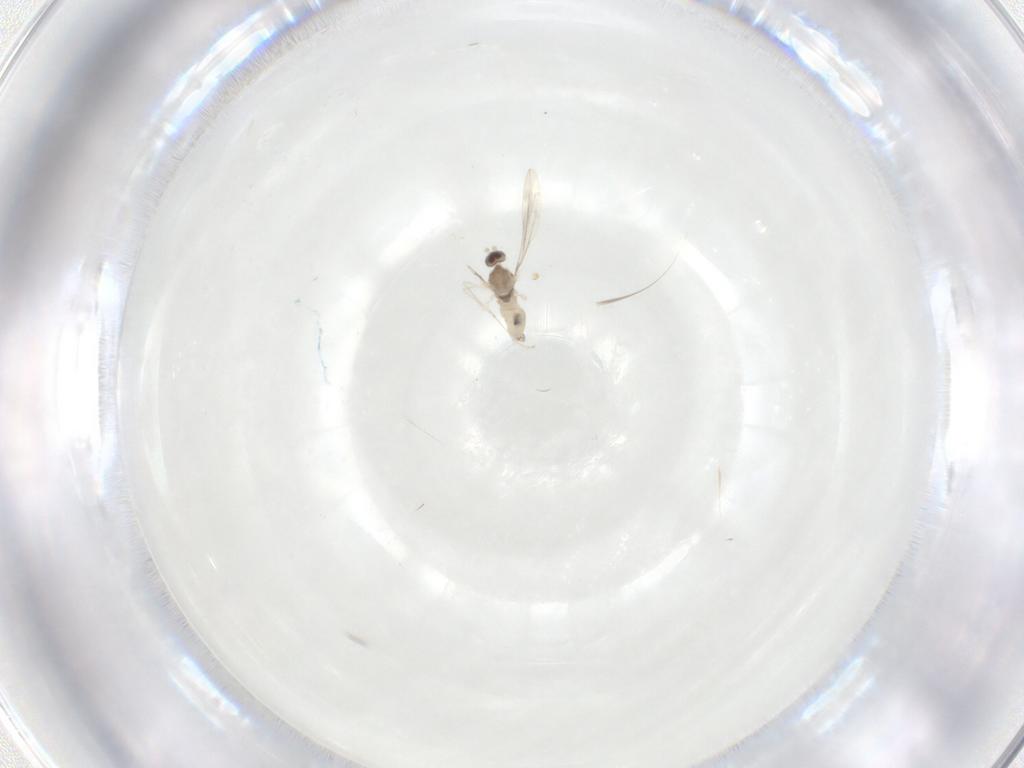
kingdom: Animalia
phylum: Arthropoda
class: Insecta
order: Diptera
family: Cecidomyiidae
